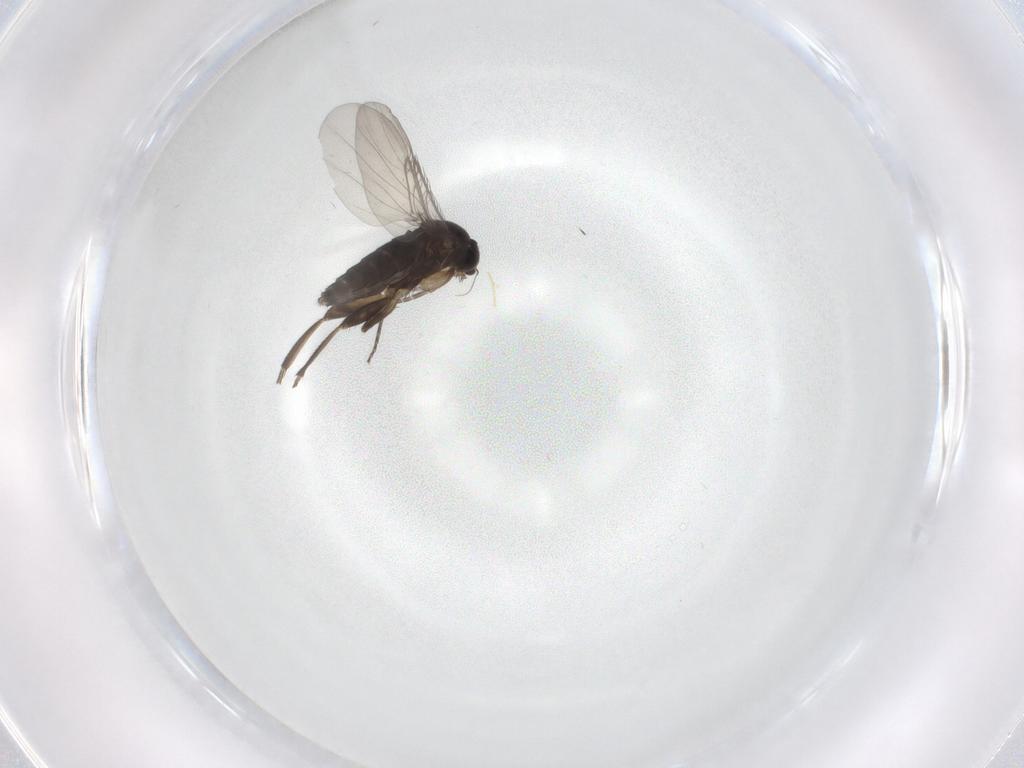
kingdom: Animalia
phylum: Arthropoda
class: Insecta
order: Diptera
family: Phoridae
